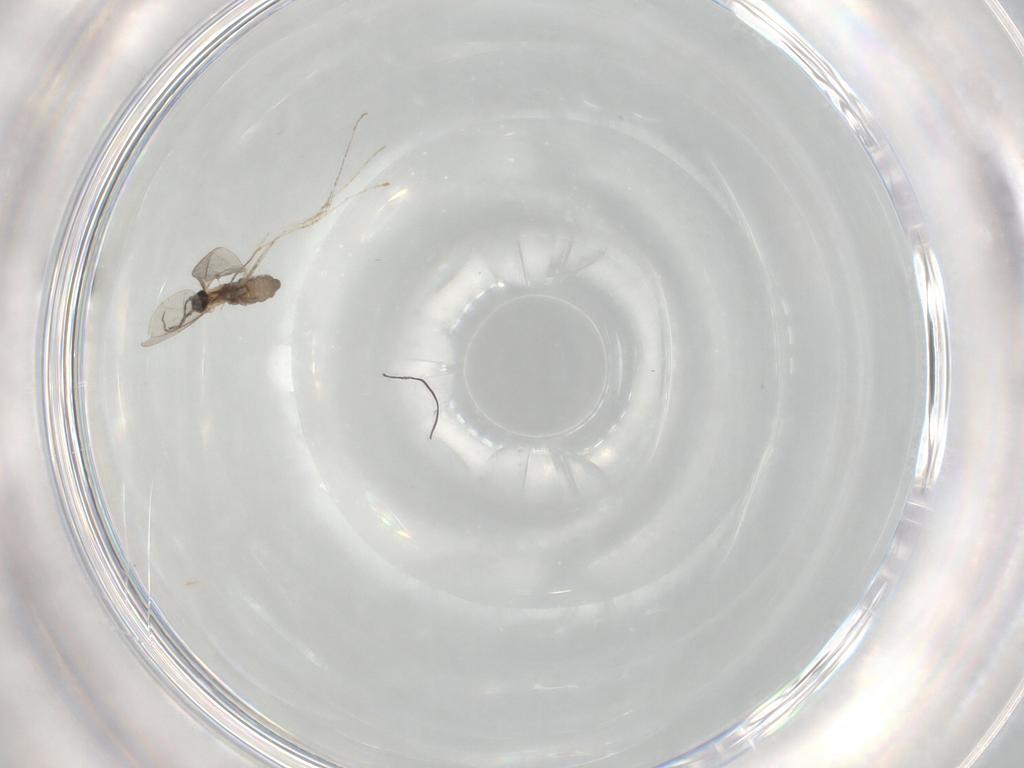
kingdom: Animalia
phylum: Arthropoda
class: Insecta
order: Diptera
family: Cecidomyiidae
